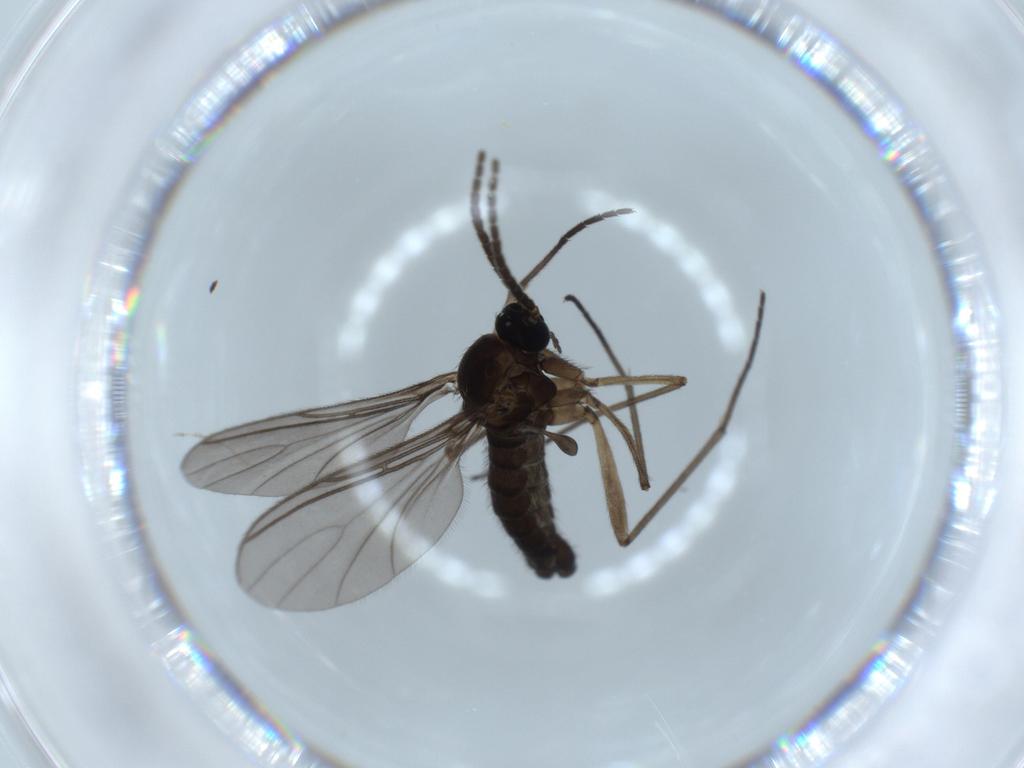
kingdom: Animalia
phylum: Arthropoda
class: Insecta
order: Diptera
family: Sciaridae
